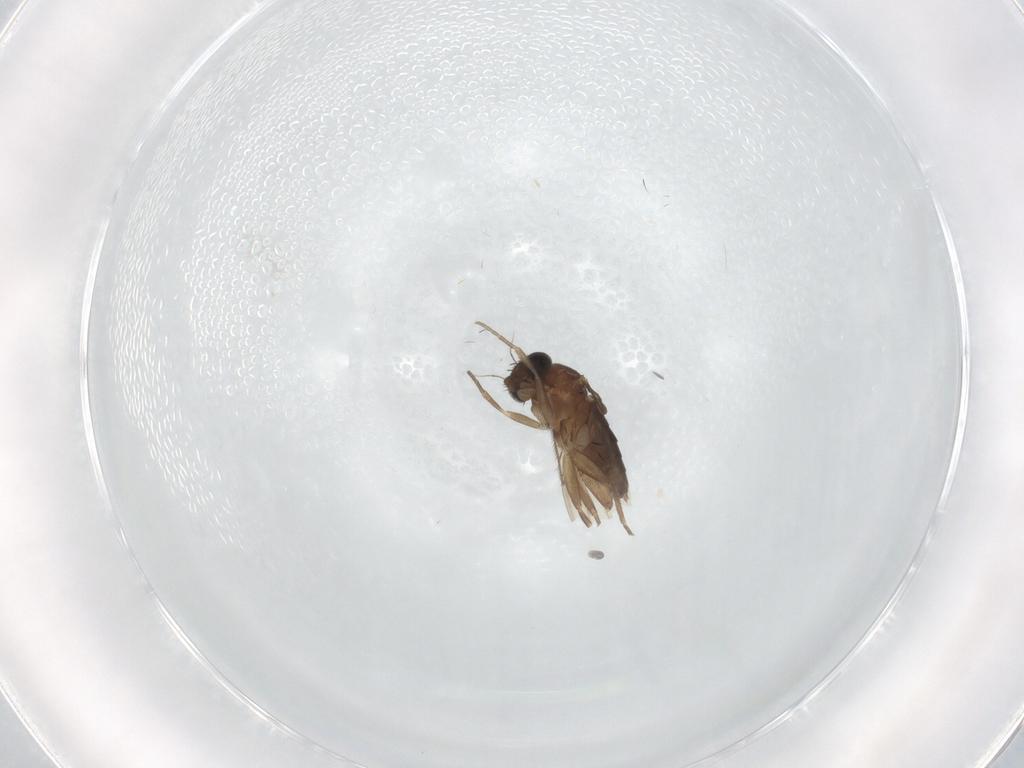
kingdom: Animalia
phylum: Arthropoda
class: Insecta
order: Diptera
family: Phoridae
